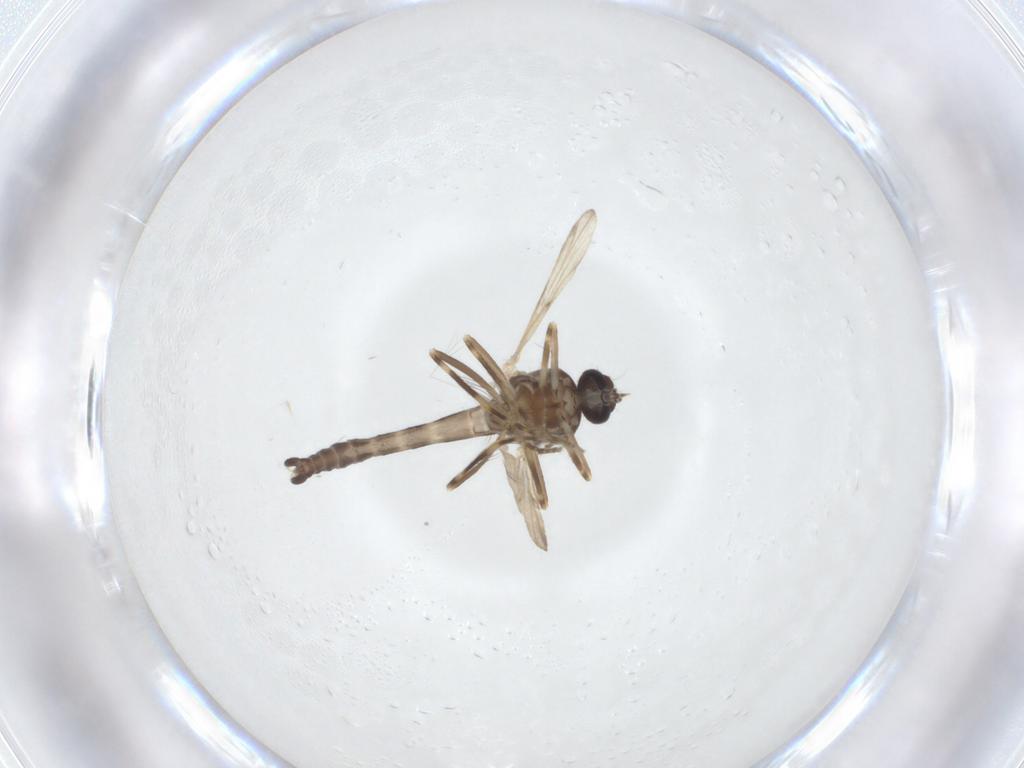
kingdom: Animalia
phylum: Arthropoda
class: Insecta
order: Diptera
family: Ceratopogonidae
